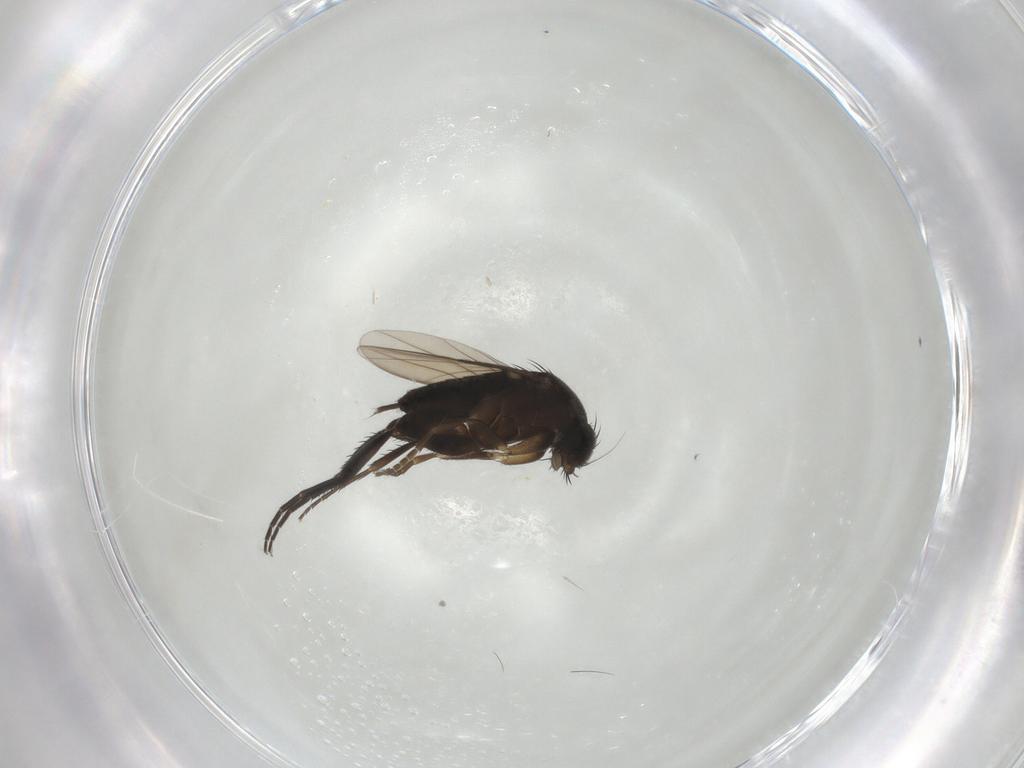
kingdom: Animalia
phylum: Arthropoda
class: Insecta
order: Diptera
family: Phoridae
